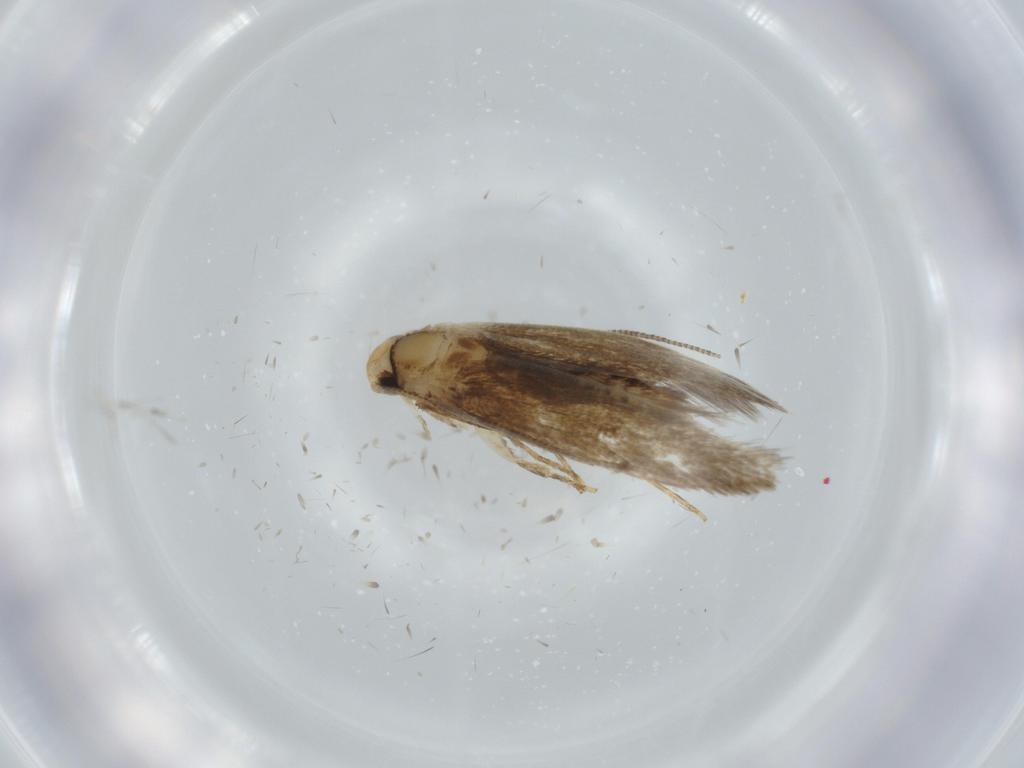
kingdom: Animalia
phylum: Arthropoda
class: Insecta
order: Lepidoptera
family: Tineidae
